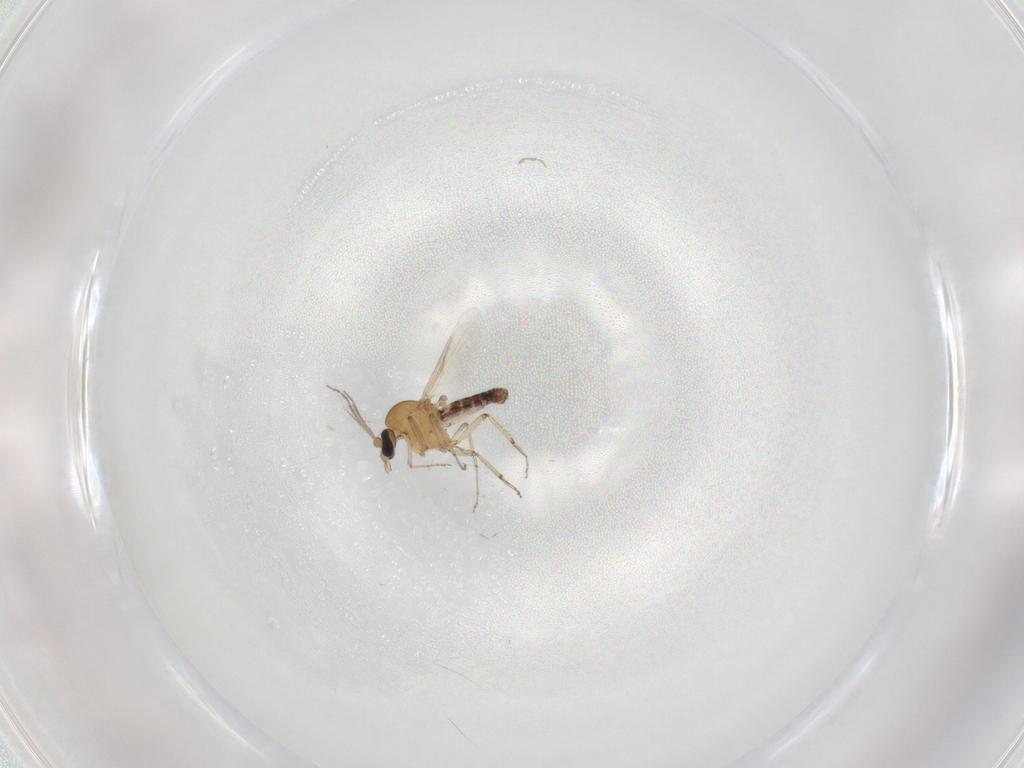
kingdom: Animalia
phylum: Arthropoda
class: Insecta
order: Diptera
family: Ceratopogonidae
